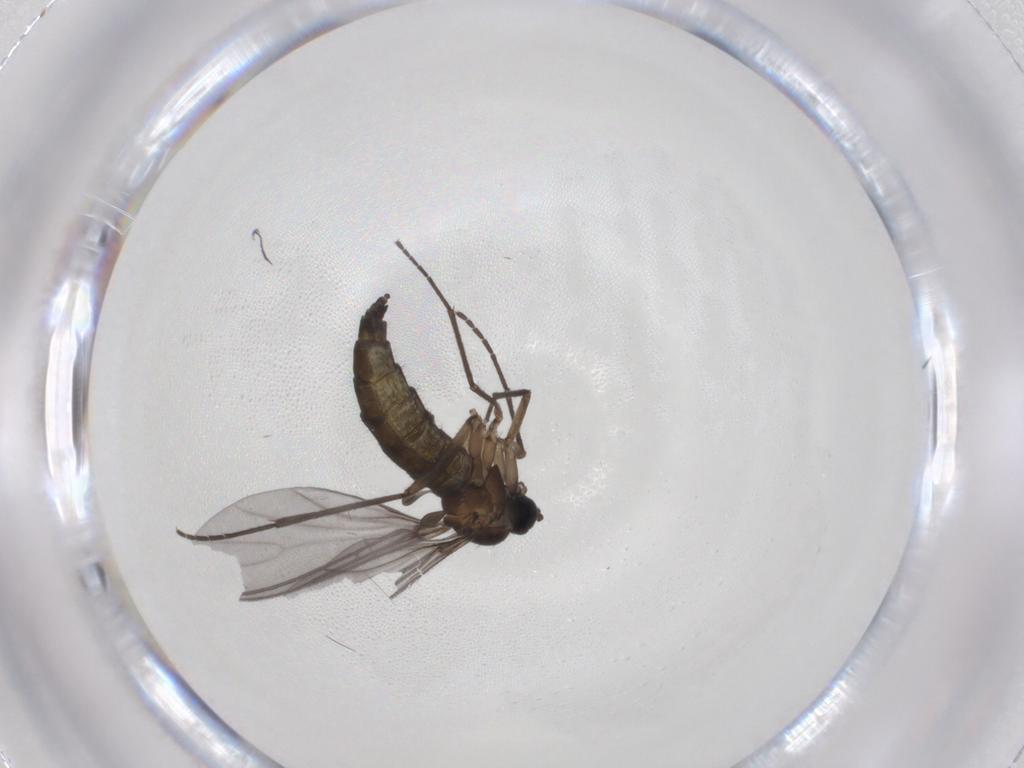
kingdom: Animalia
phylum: Arthropoda
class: Insecta
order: Diptera
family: Sciaridae
